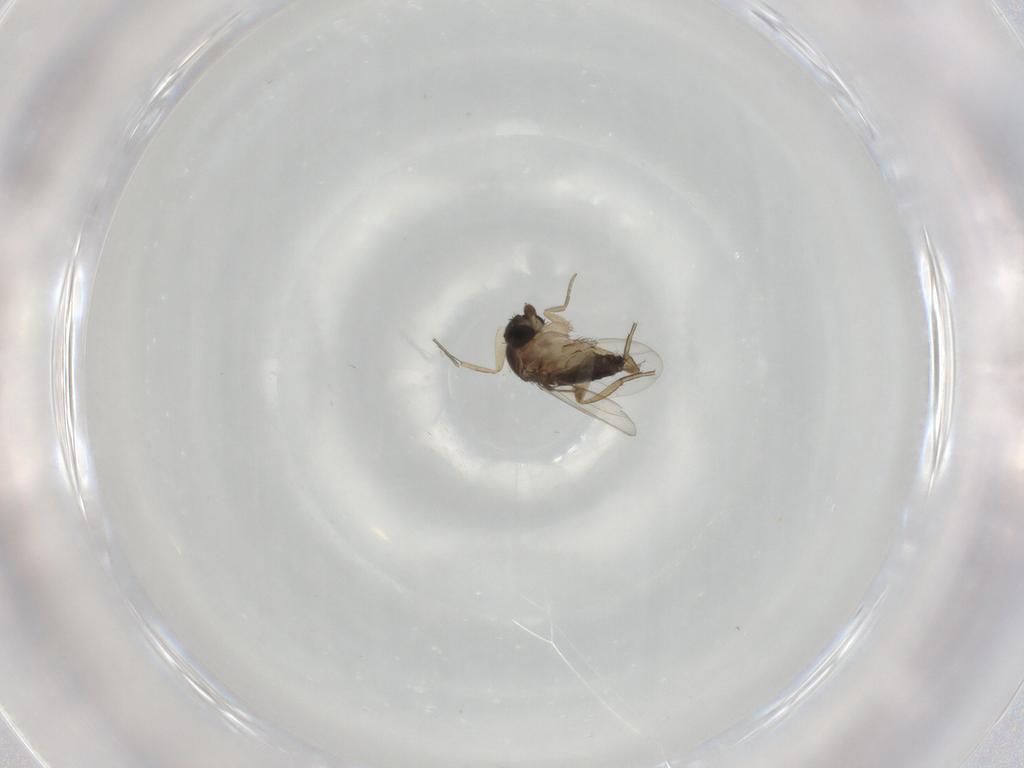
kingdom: Animalia
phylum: Arthropoda
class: Insecta
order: Diptera
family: Phoridae
